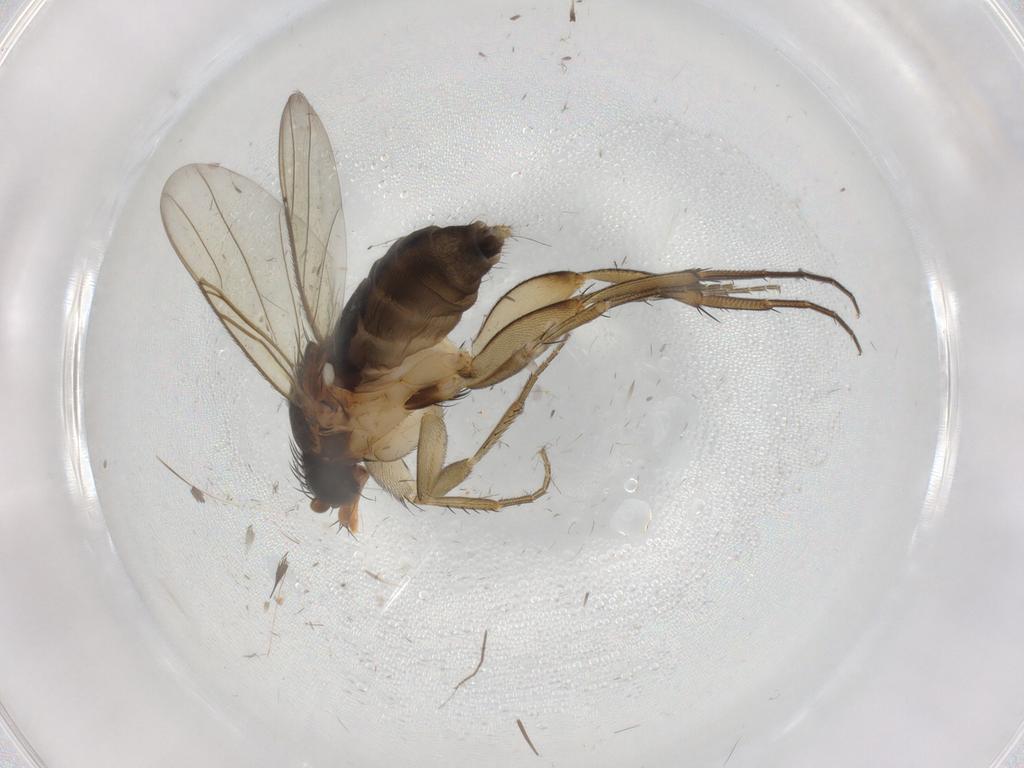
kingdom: Animalia
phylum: Arthropoda
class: Insecta
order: Diptera
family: Phoridae
